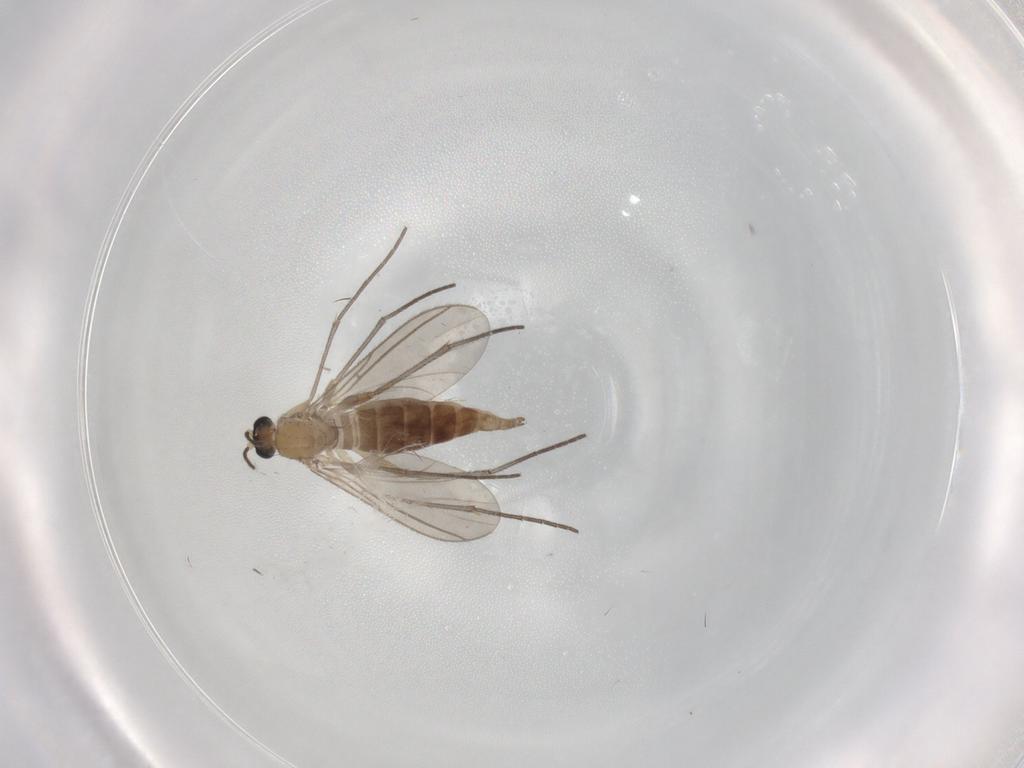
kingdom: Animalia
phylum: Arthropoda
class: Insecta
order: Diptera
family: Sciaridae
